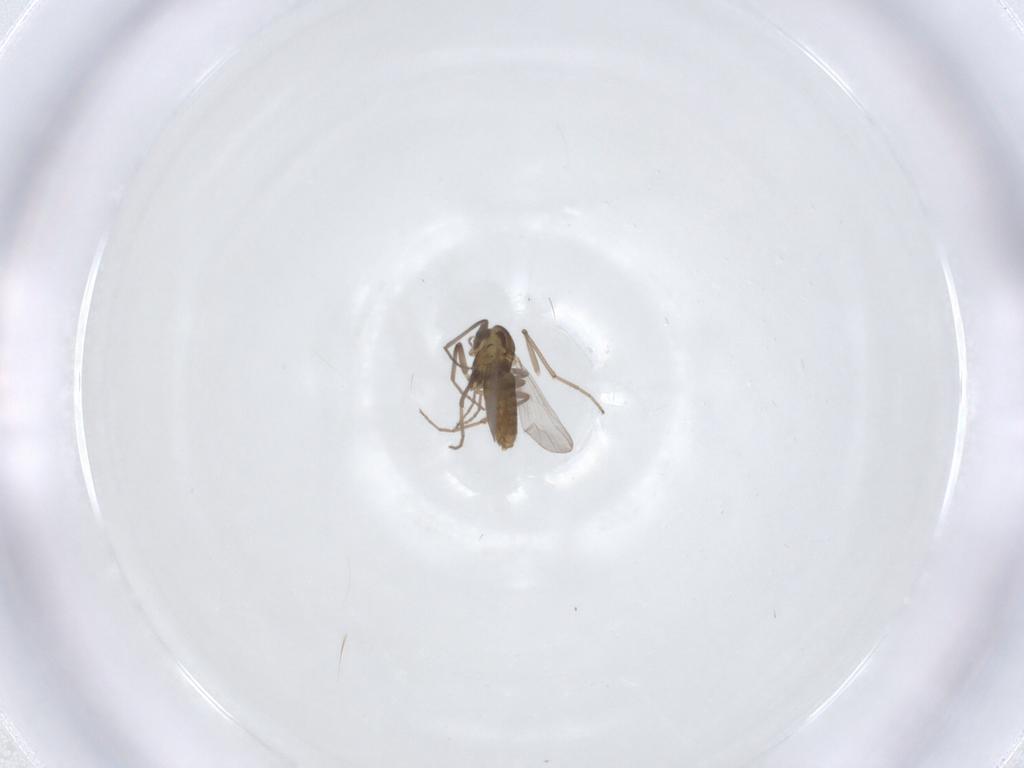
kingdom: Animalia
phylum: Arthropoda
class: Insecta
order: Diptera
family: Chironomidae
